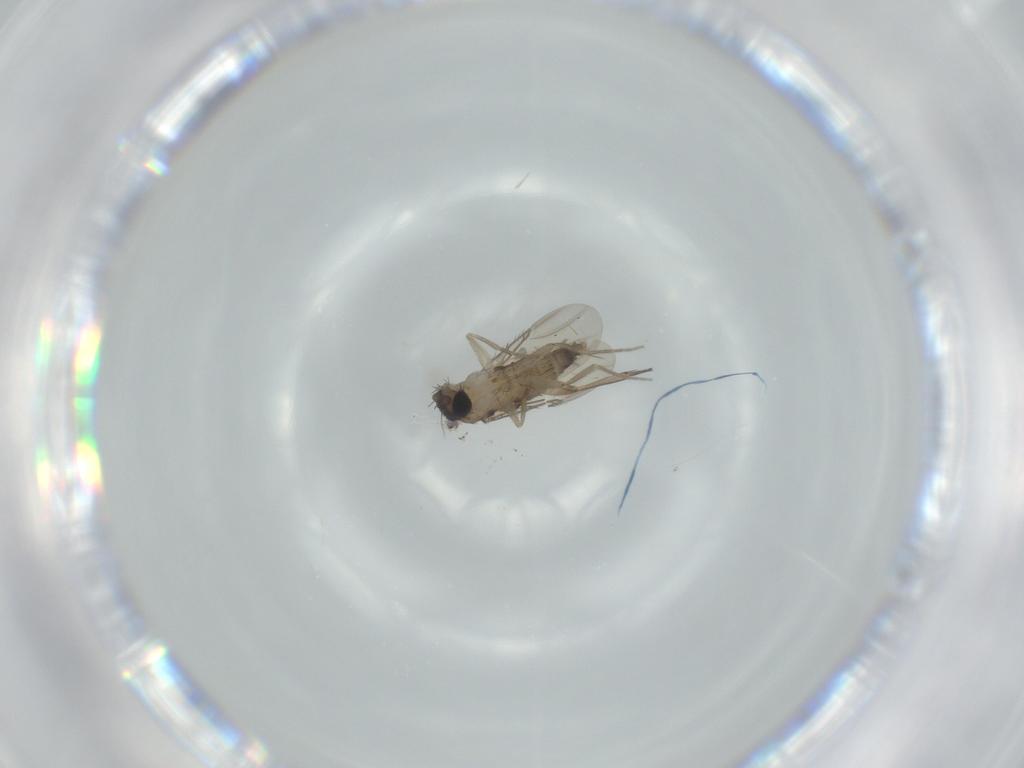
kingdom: Animalia
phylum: Arthropoda
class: Insecta
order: Diptera
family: Phoridae
